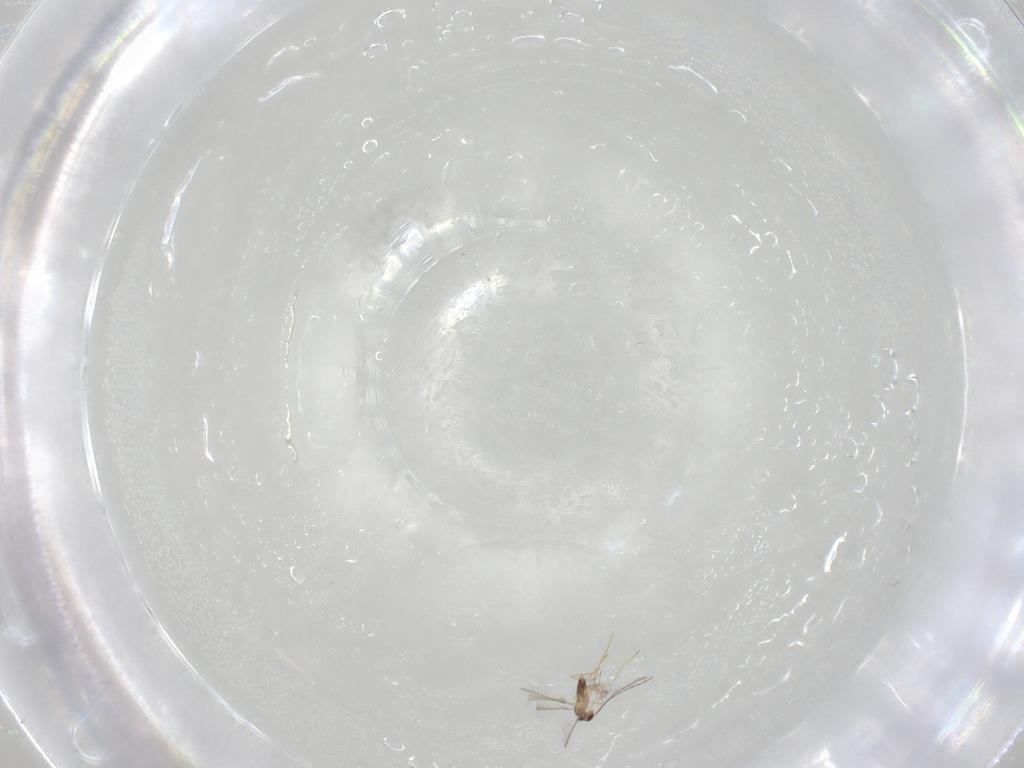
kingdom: Animalia
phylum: Arthropoda
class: Insecta
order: Hymenoptera
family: Mymaridae
